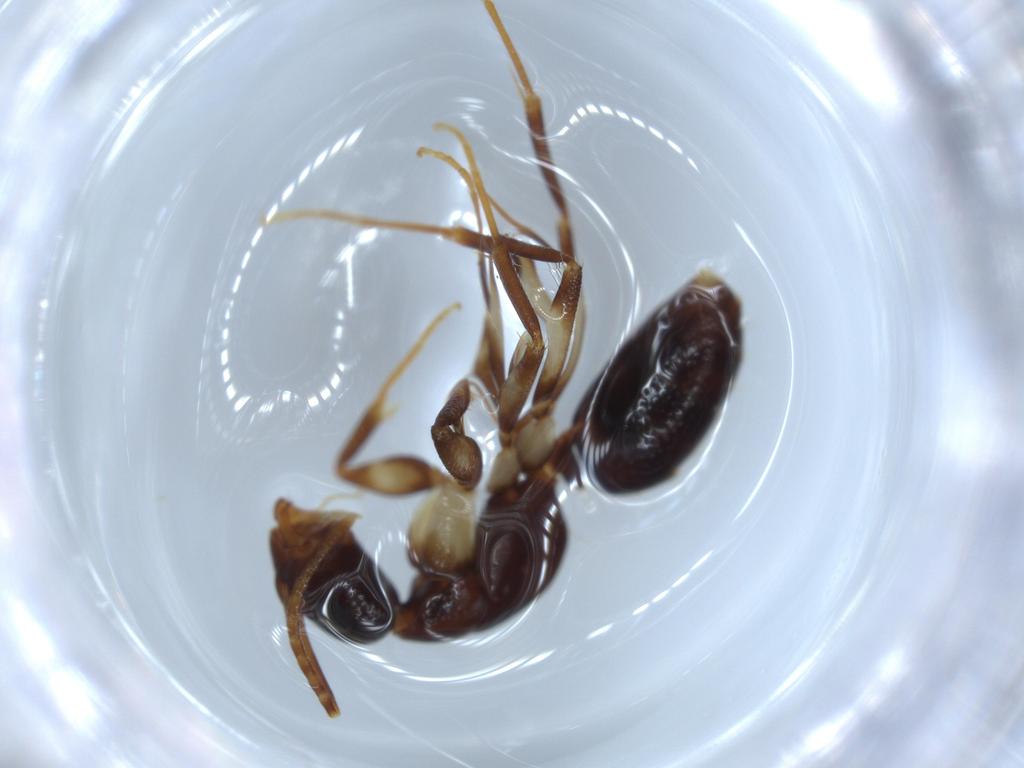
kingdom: Animalia
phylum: Arthropoda
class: Insecta
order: Hymenoptera
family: Formicidae
